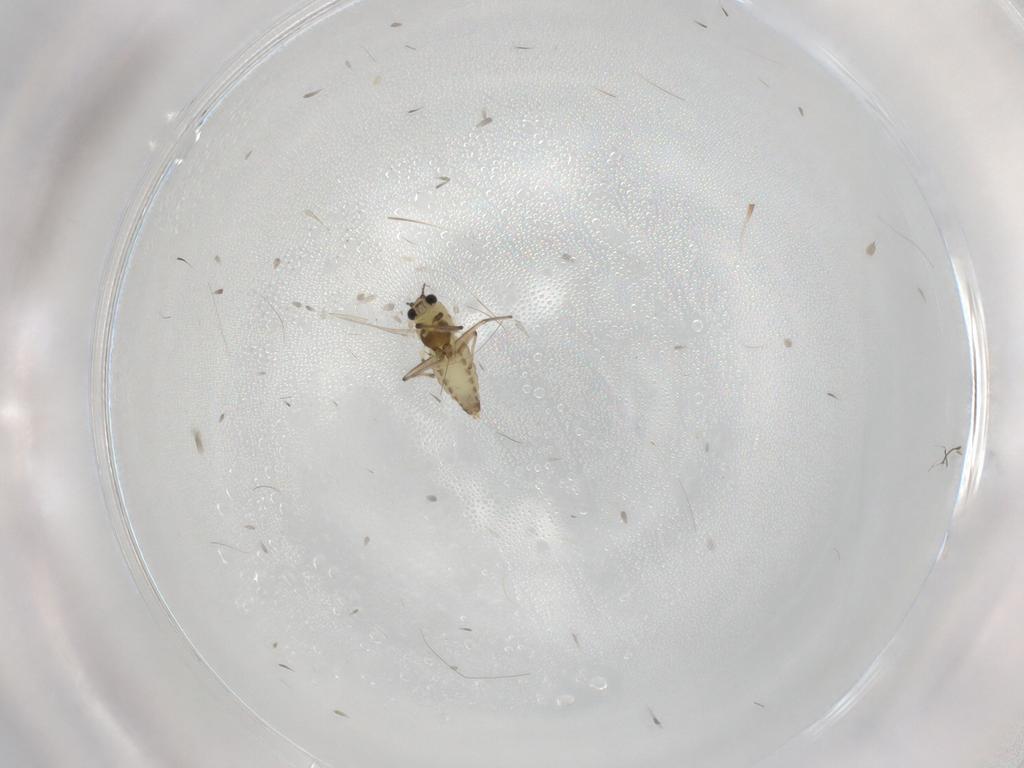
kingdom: Animalia
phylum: Arthropoda
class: Insecta
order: Diptera
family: Chironomidae
